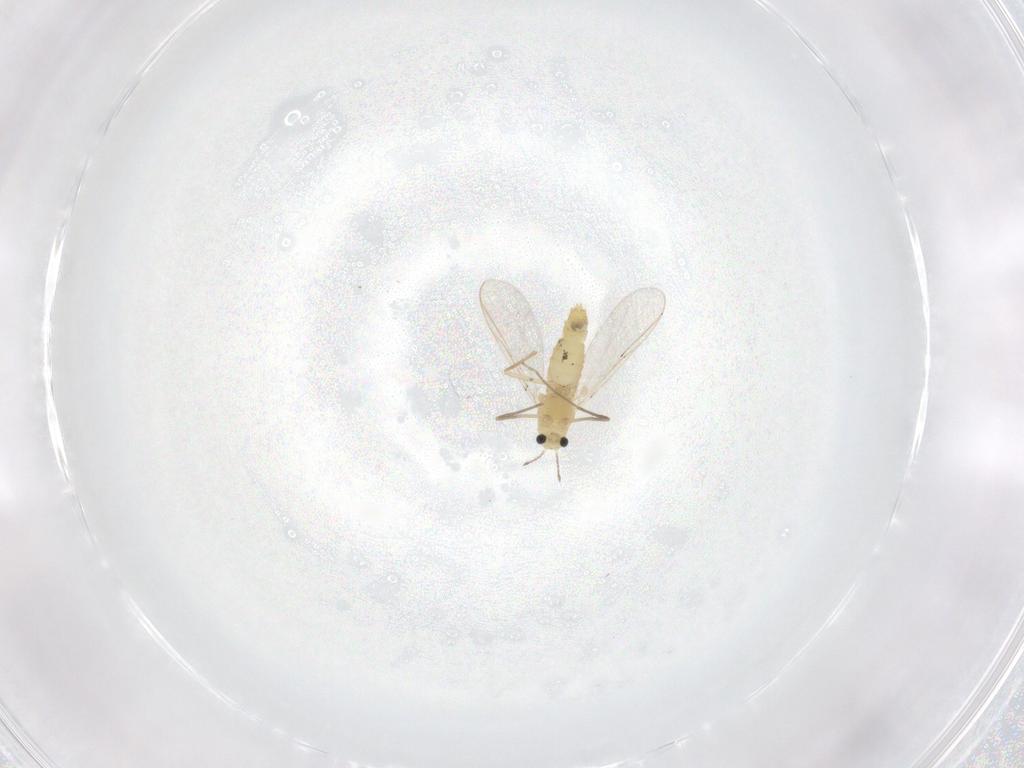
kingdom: Animalia
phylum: Arthropoda
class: Insecta
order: Diptera
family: Chironomidae
